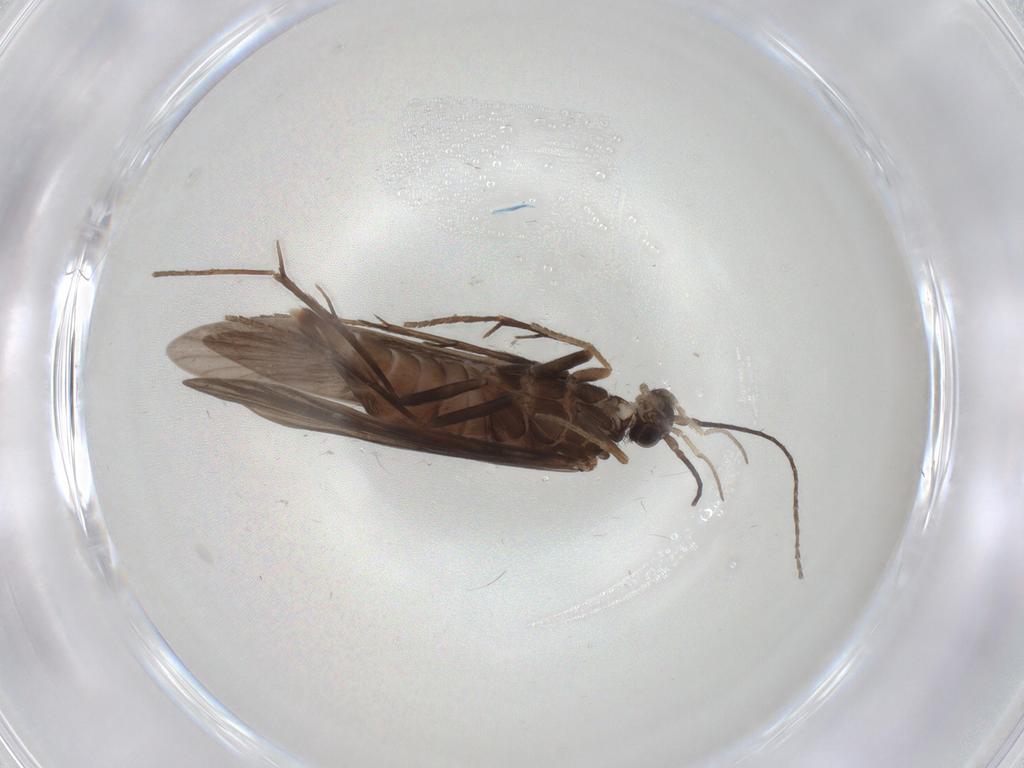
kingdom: Animalia
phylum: Arthropoda
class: Insecta
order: Trichoptera
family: Xiphocentronidae
